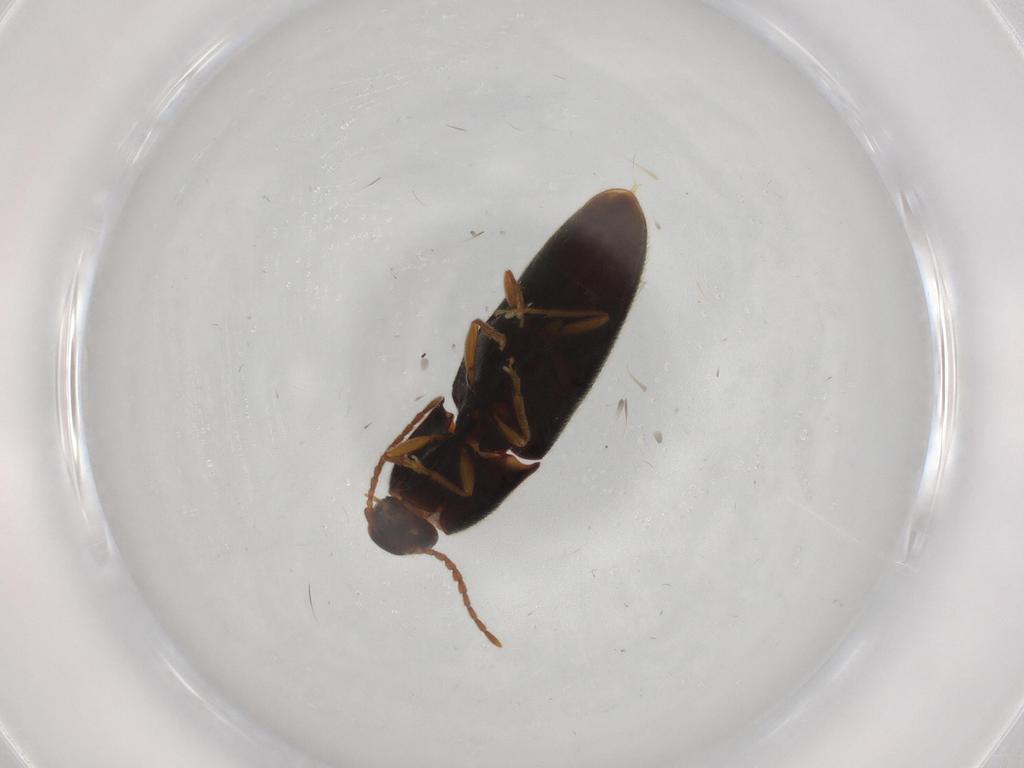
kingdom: Animalia
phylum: Arthropoda
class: Insecta
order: Coleoptera
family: Elateridae
